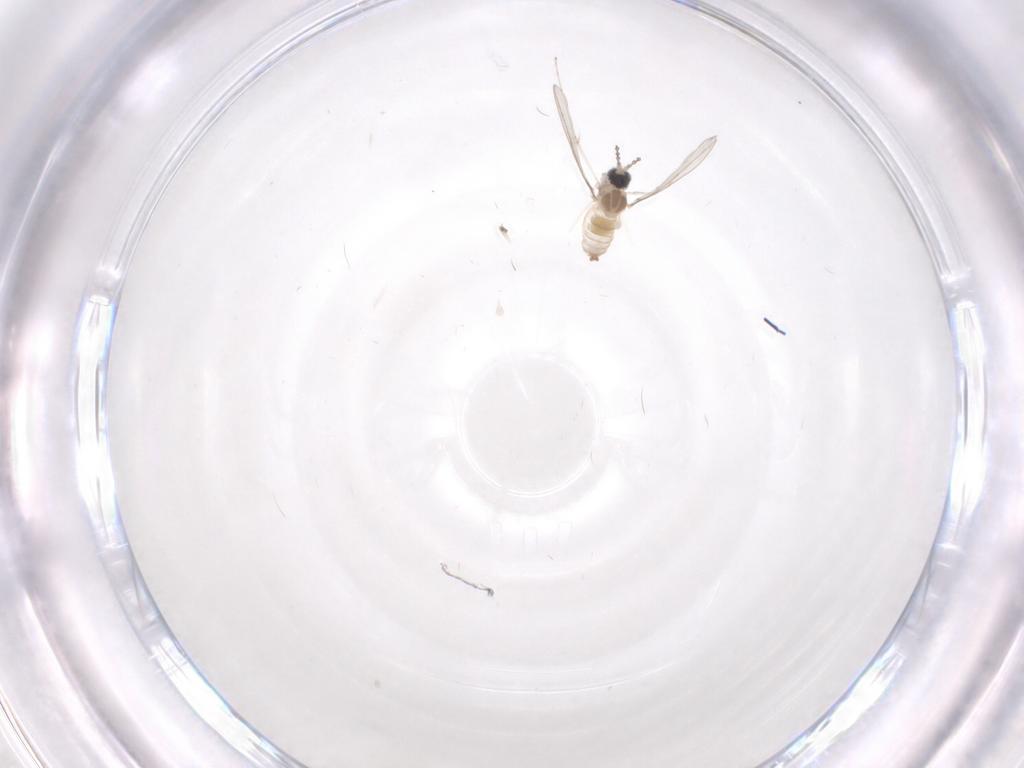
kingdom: Animalia
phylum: Arthropoda
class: Insecta
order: Diptera
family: Cecidomyiidae
